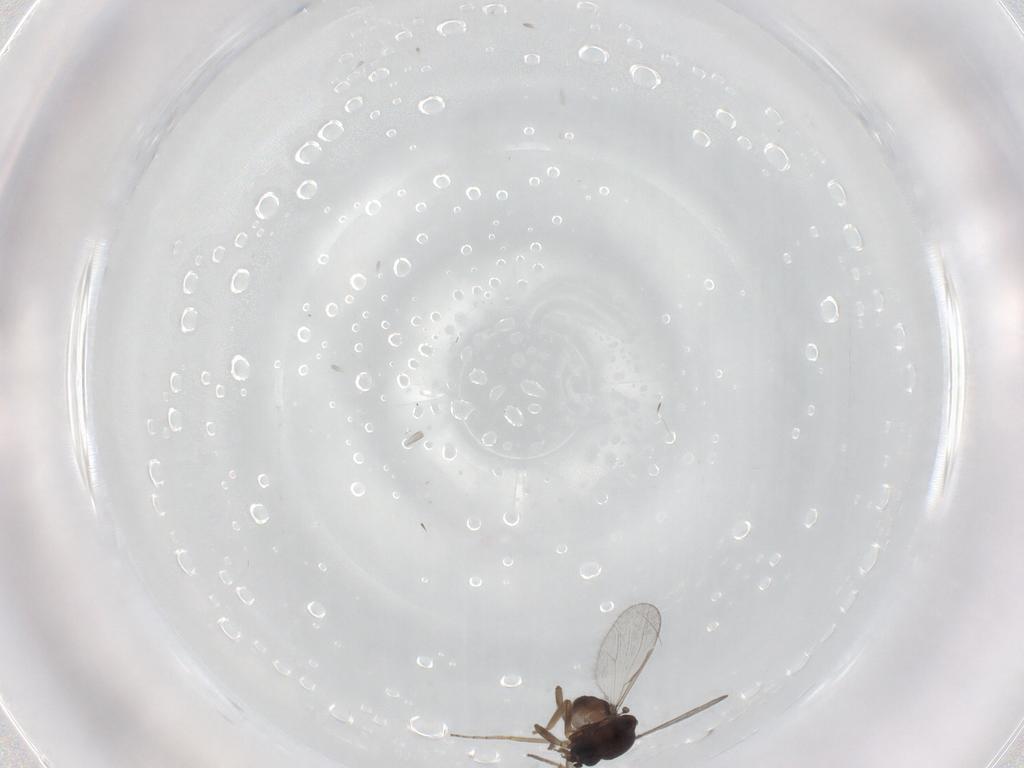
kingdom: Animalia
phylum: Arthropoda
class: Insecta
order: Diptera
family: Ceratopogonidae
